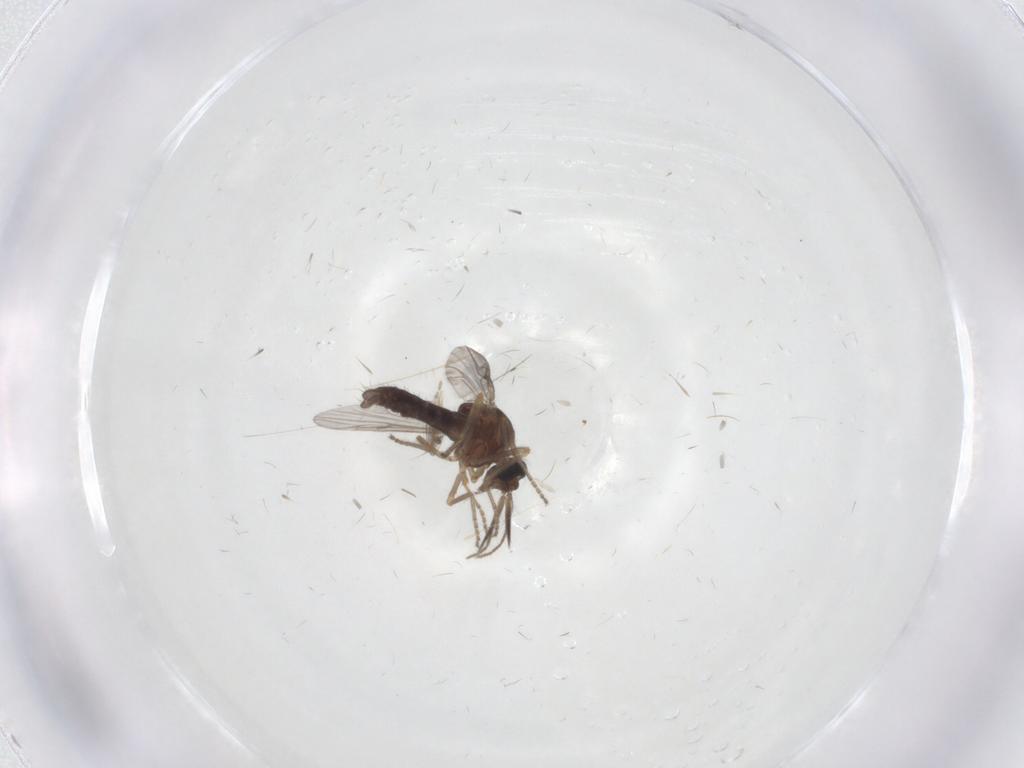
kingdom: Animalia
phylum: Arthropoda
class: Insecta
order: Diptera
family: Ceratopogonidae
